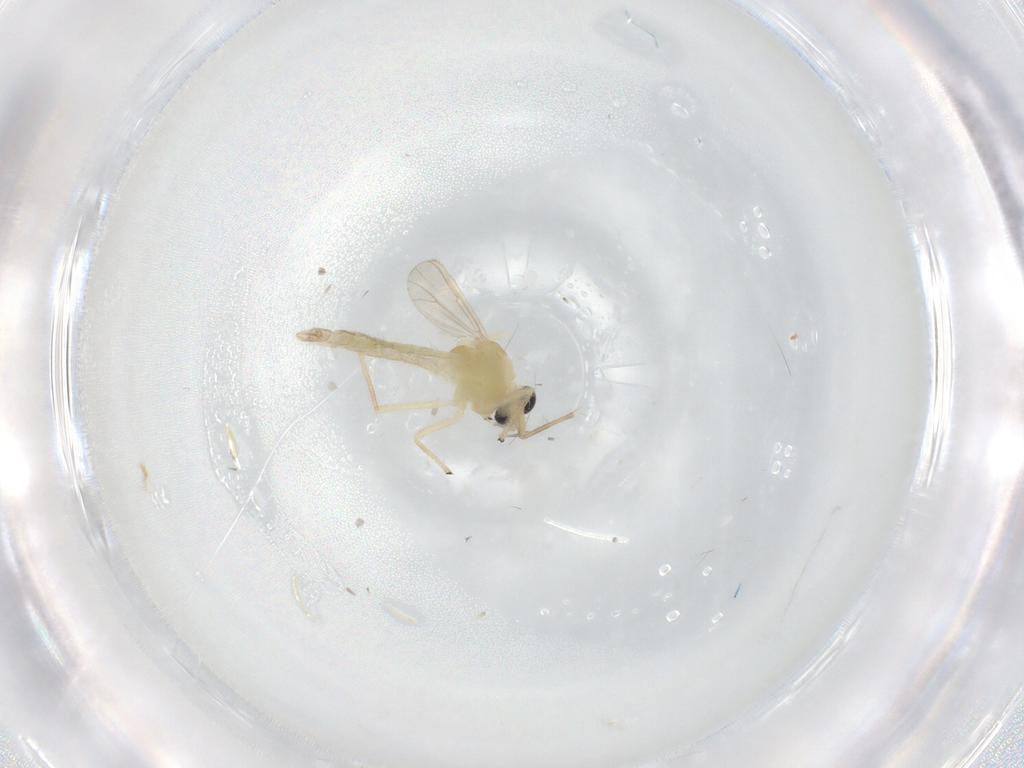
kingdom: Animalia
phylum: Arthropoda
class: Insecta
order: Diptera
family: Chironomidae
